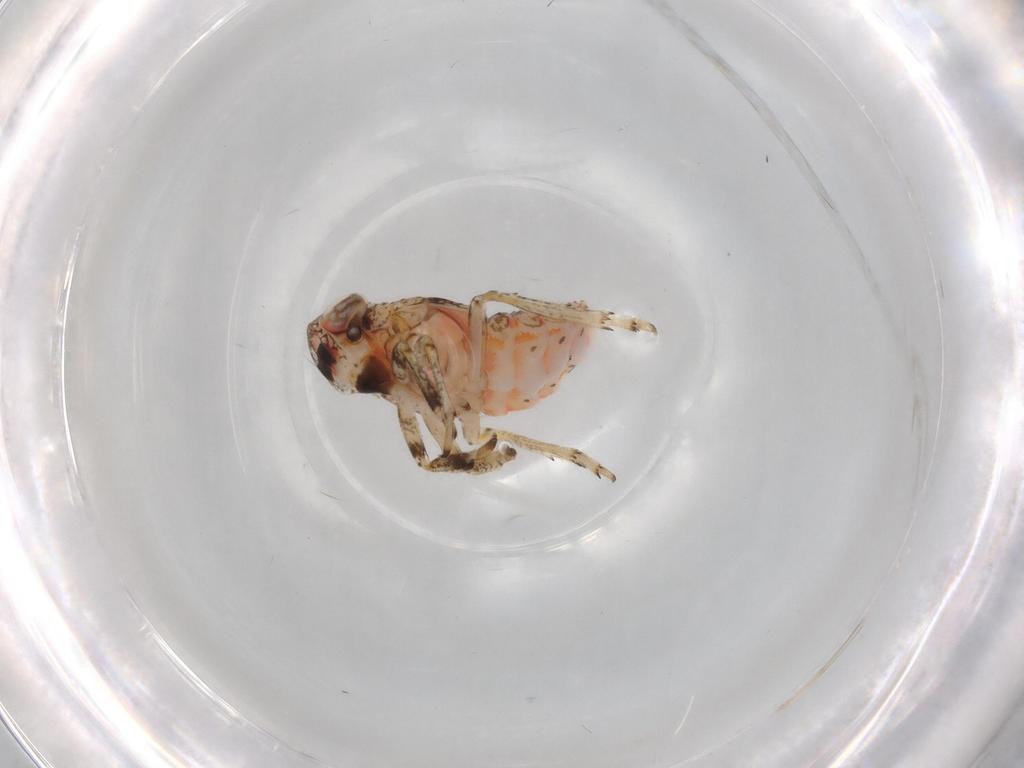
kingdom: Animalia
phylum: Arthropoda
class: Insecta
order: Hemiptera
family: Issidae
